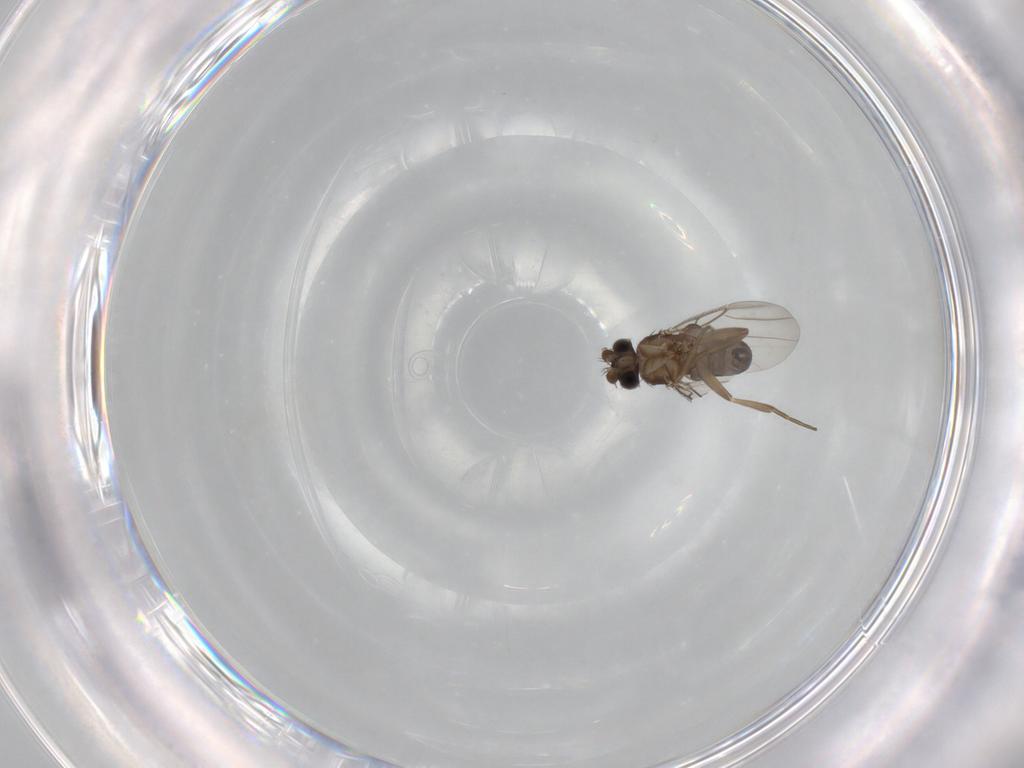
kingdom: Animalia
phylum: Arthropoda
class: Insecta
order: Diptera
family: Phoridae
